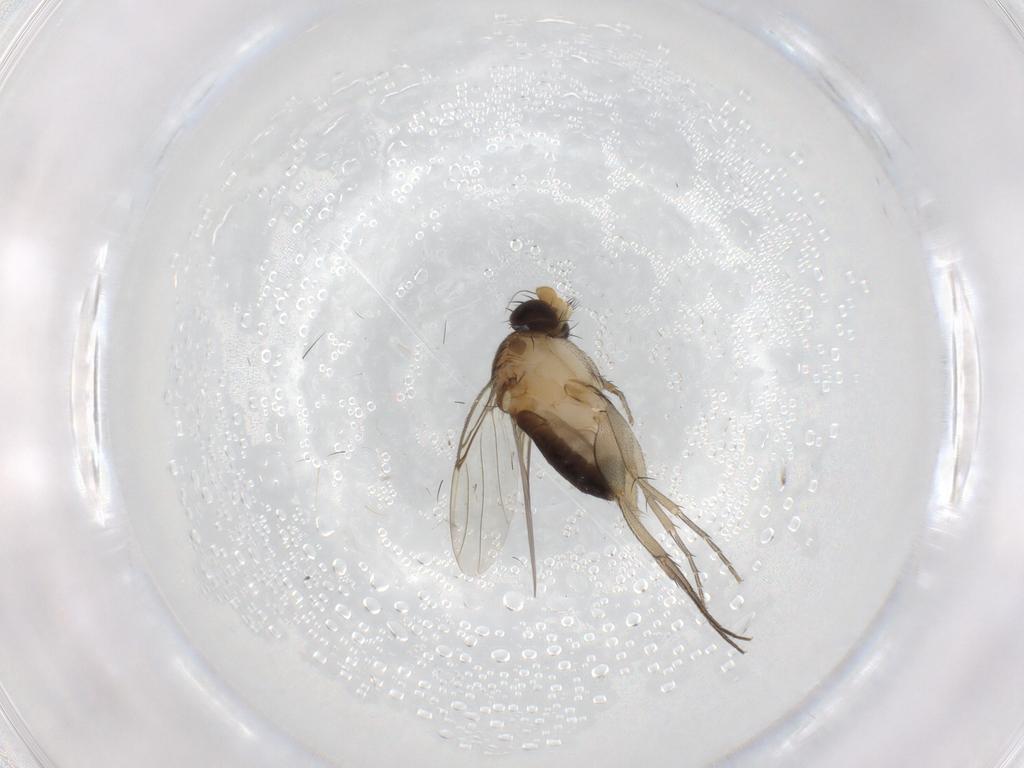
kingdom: Animalia
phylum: Arthropoda
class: Insecta
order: Diptera
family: Phoridae
